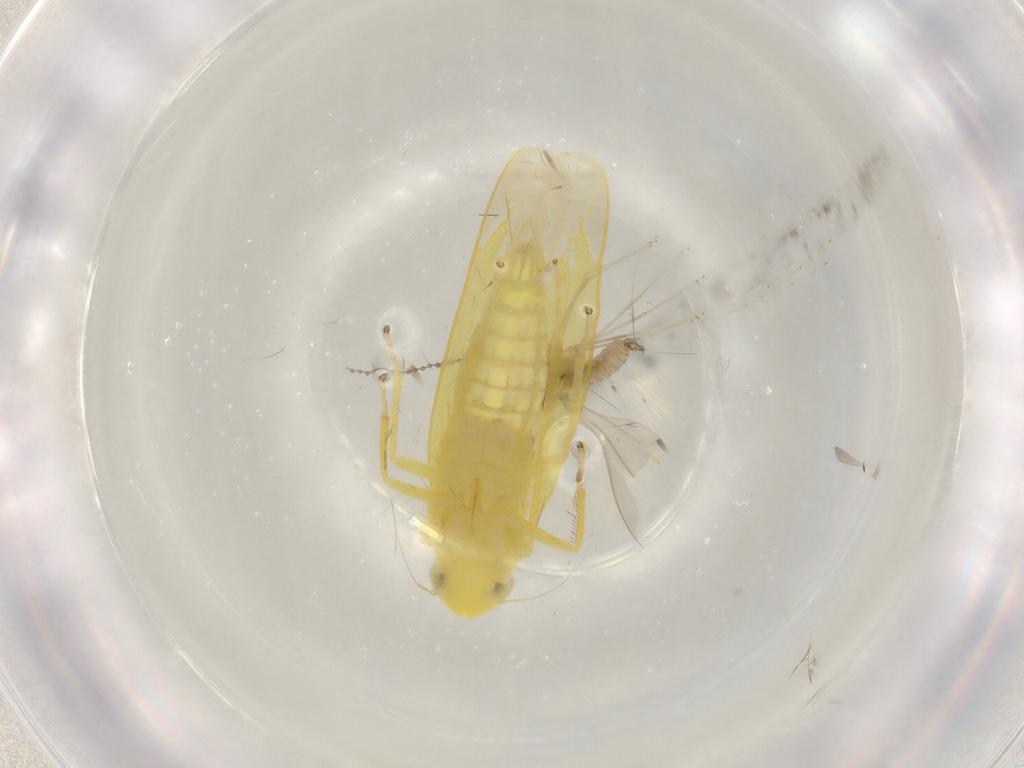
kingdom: Animalia
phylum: Arthropoda
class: Insecta
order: Diptera
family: Cecidomyiidae
